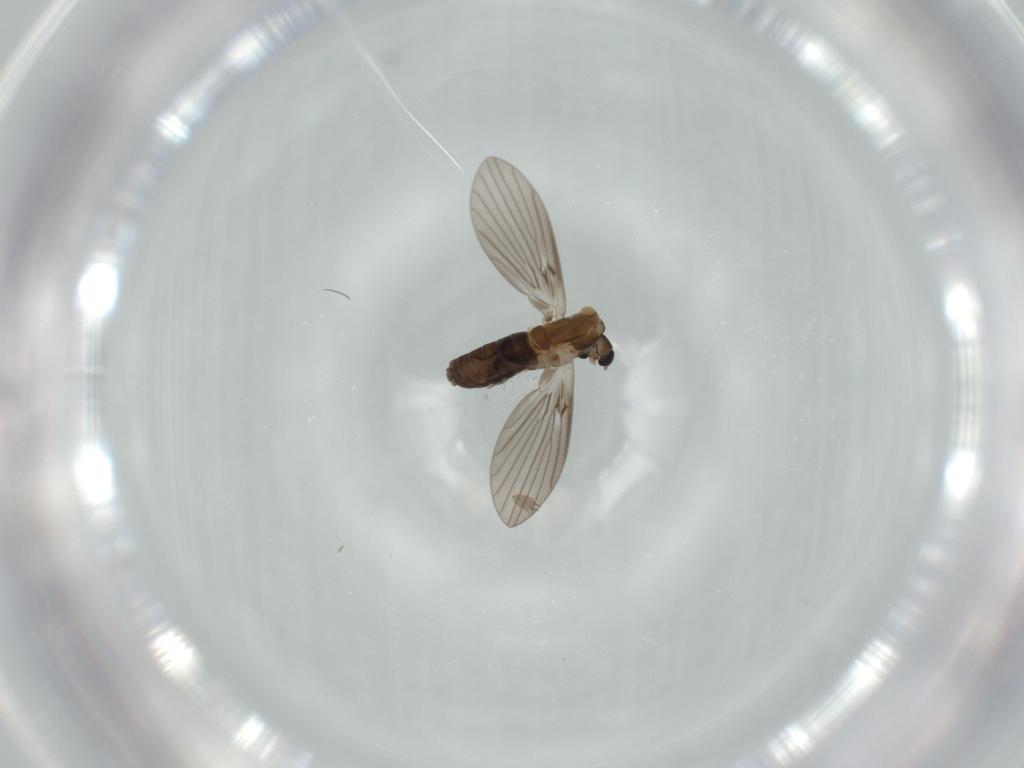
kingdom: Animalia
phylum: Arthropoda
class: Insecta
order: Diptera
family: Psychodidae
